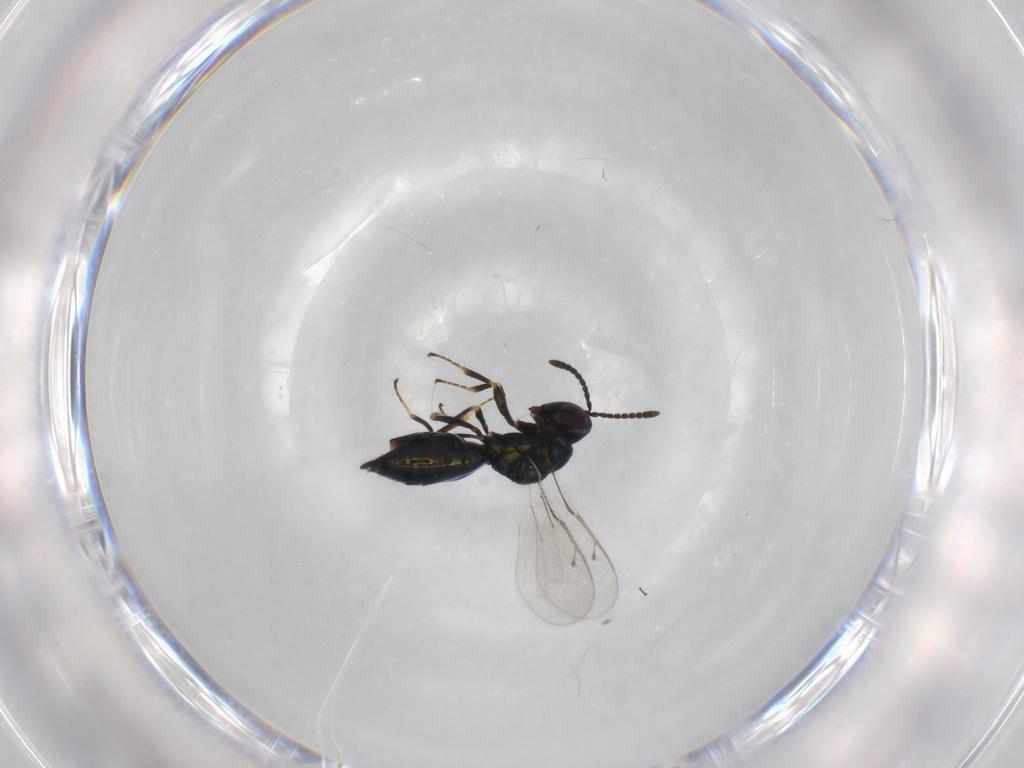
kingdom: Animalia
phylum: Arthropoda
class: Insecta
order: Hymenoptera
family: Pteromalidae
